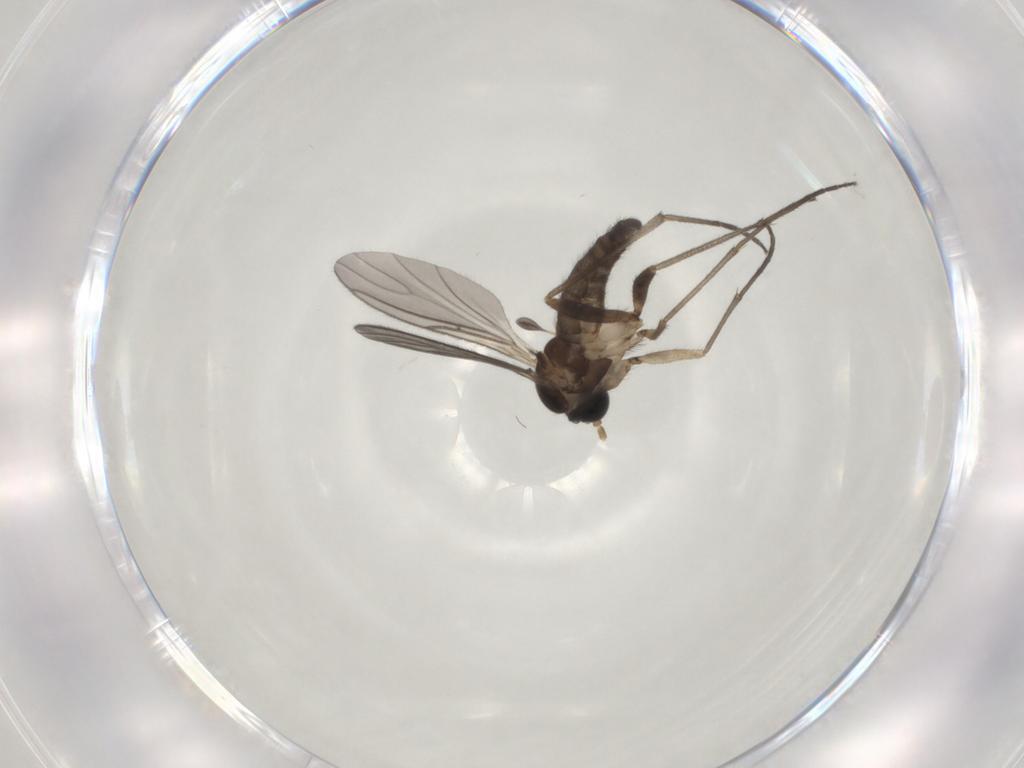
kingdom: Animalia
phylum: Arthropoda
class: Insecta
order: Diptera
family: Sciaridae
